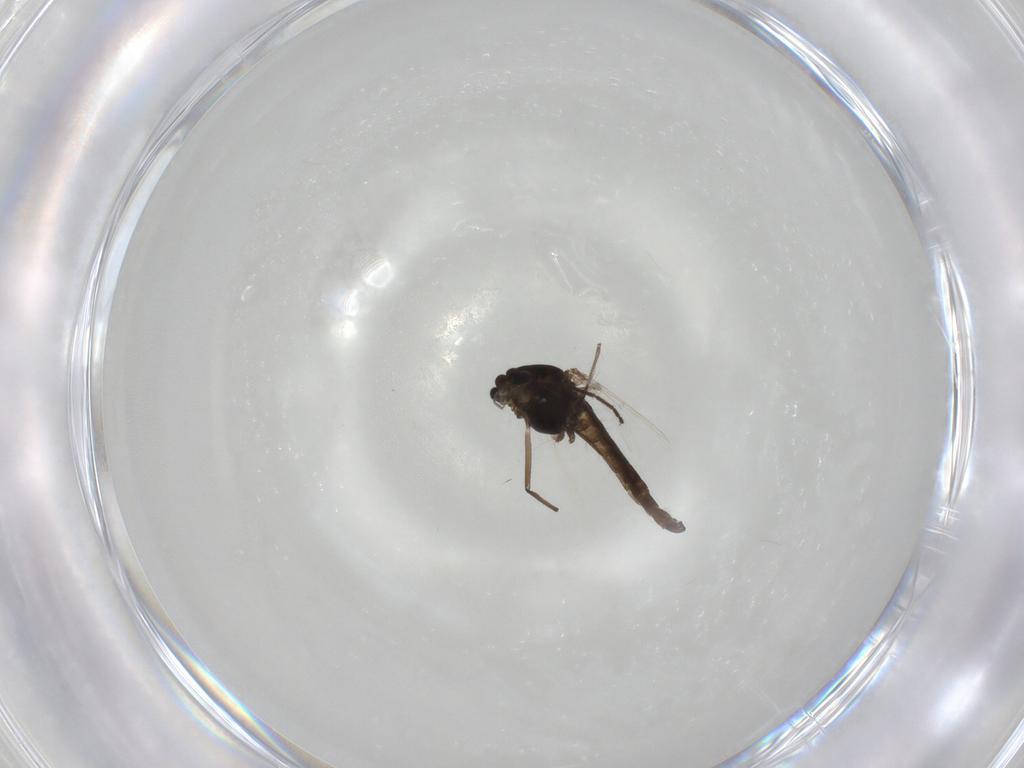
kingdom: Animalia
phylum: Arthropoda
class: Insecta
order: Diptera
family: Chironomidae
